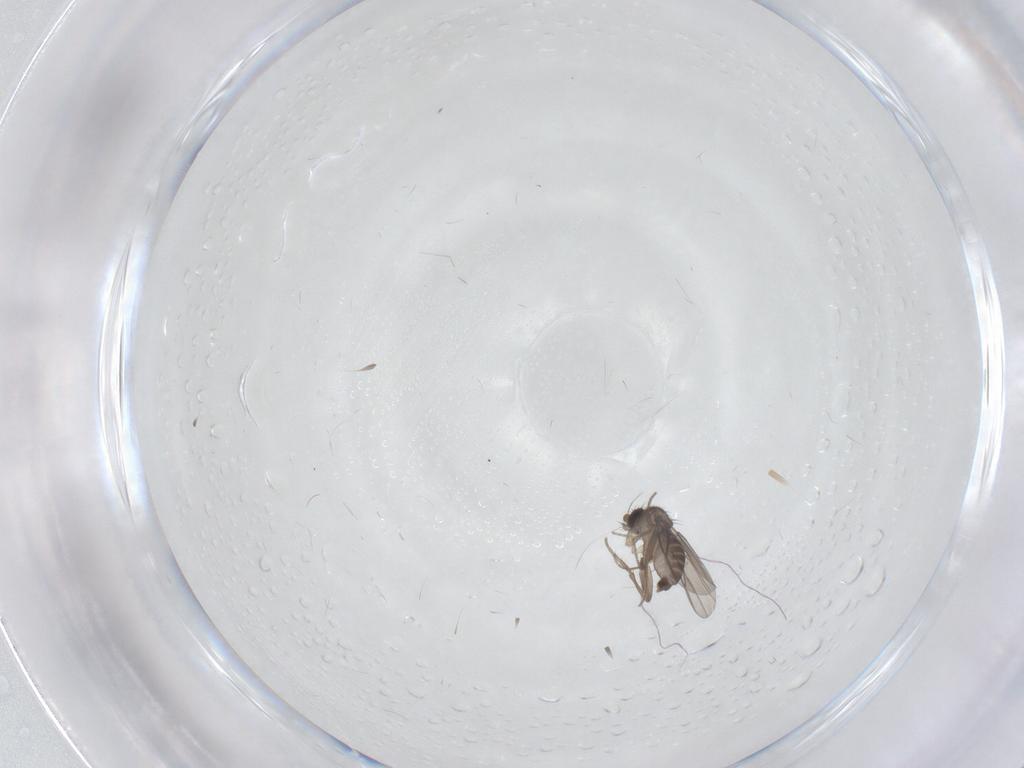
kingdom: Animalia
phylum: Arthropoda
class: Insecta
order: Diptera
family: Phoridae
